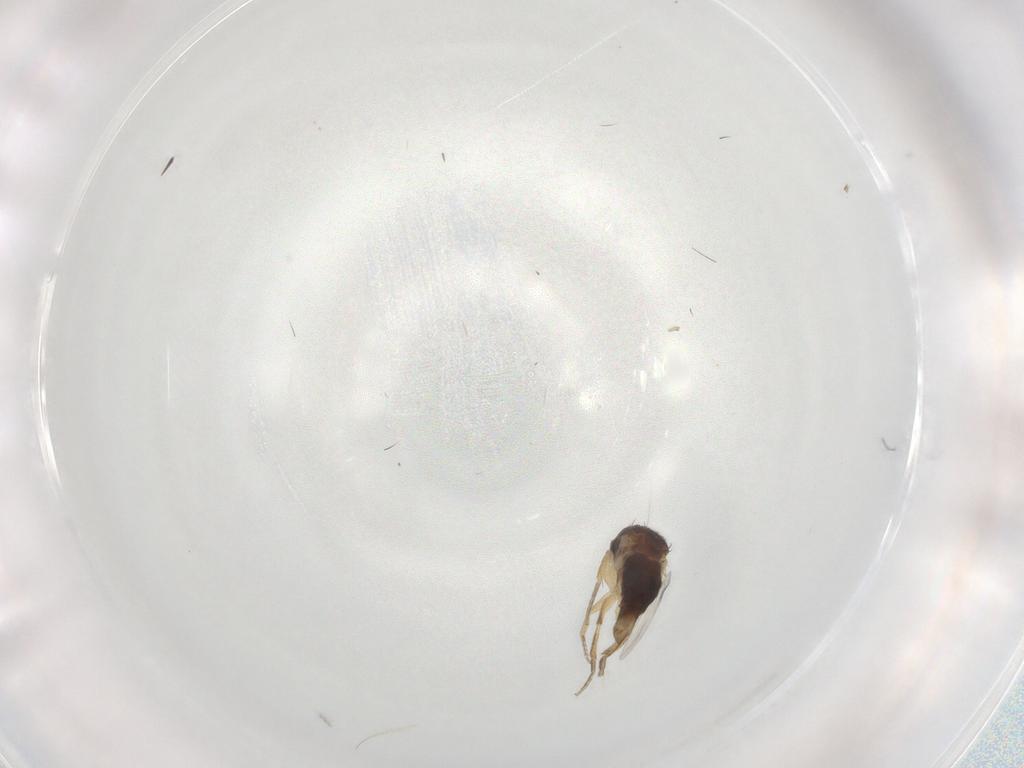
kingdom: Animalia
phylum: Arthropoda
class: Insecta
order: Diptera
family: Phoridae
